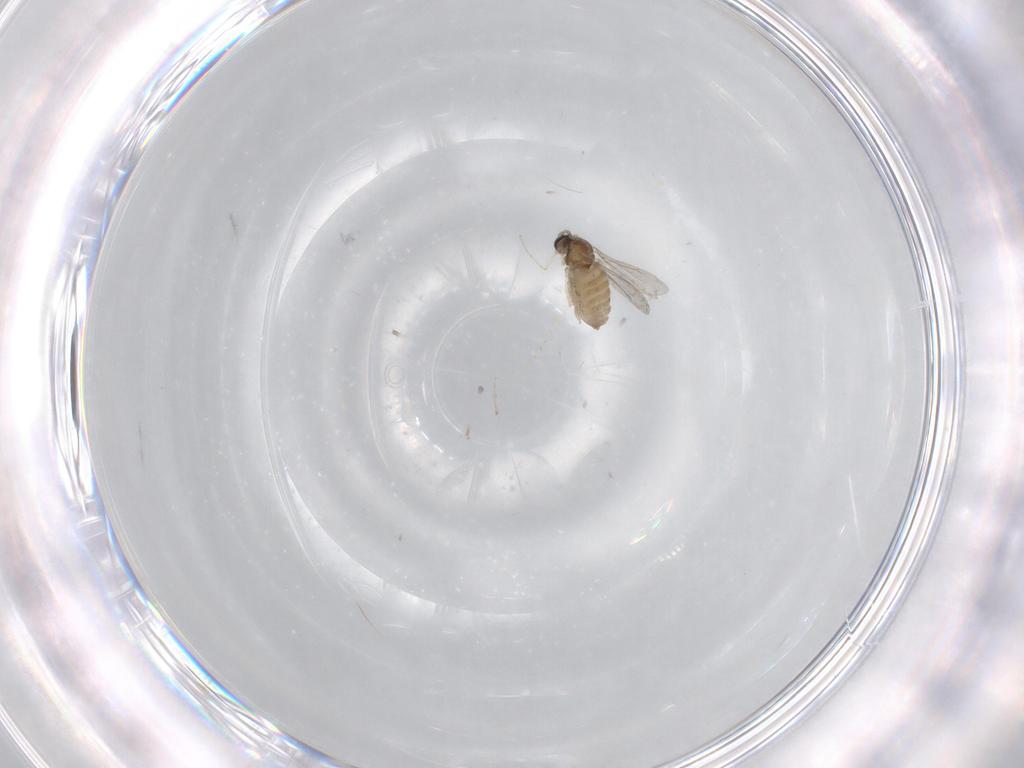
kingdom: Animalia
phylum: Arthropoda
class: Insecta
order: Diptera
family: Cecidomyiidae
